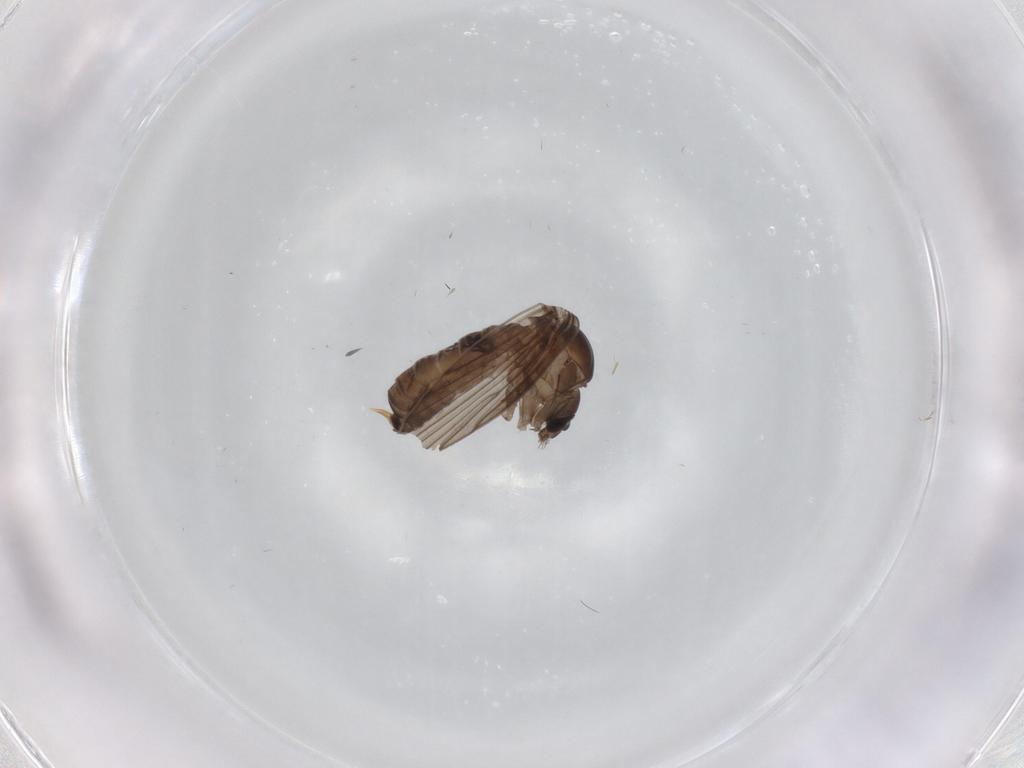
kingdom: Animalia
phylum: Arthropoda
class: Insecta
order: Diptera
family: Psychodidae
